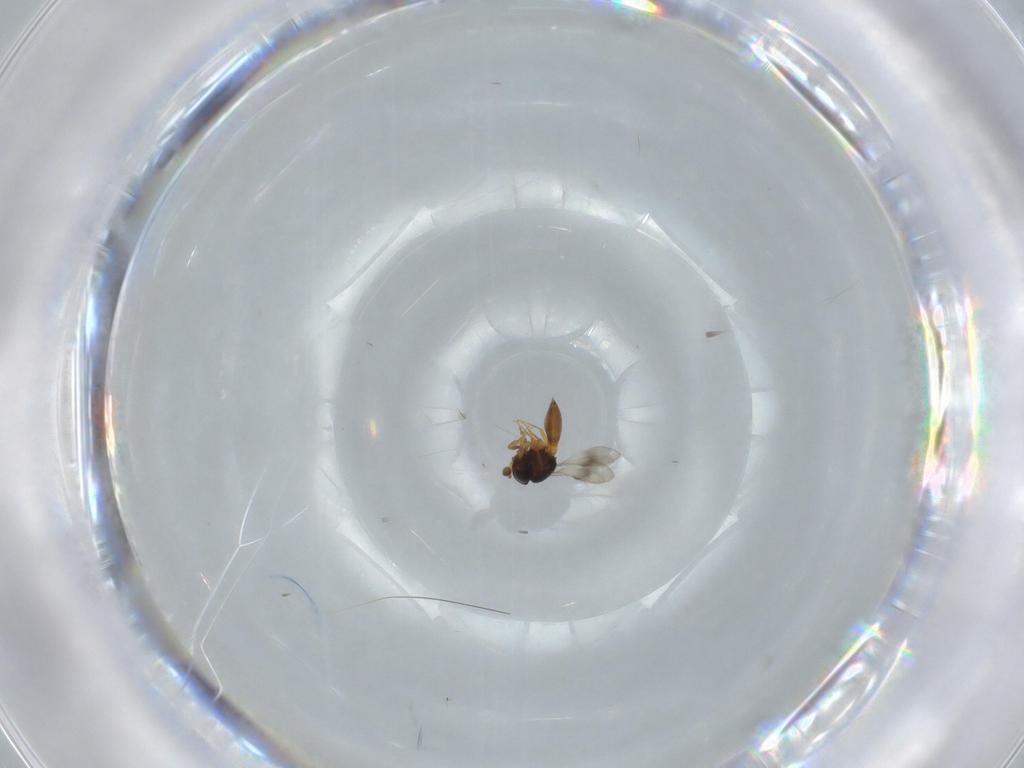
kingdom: Animalia
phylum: Arthropoda
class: Insecta
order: Hymenoptera
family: Scelionidae
